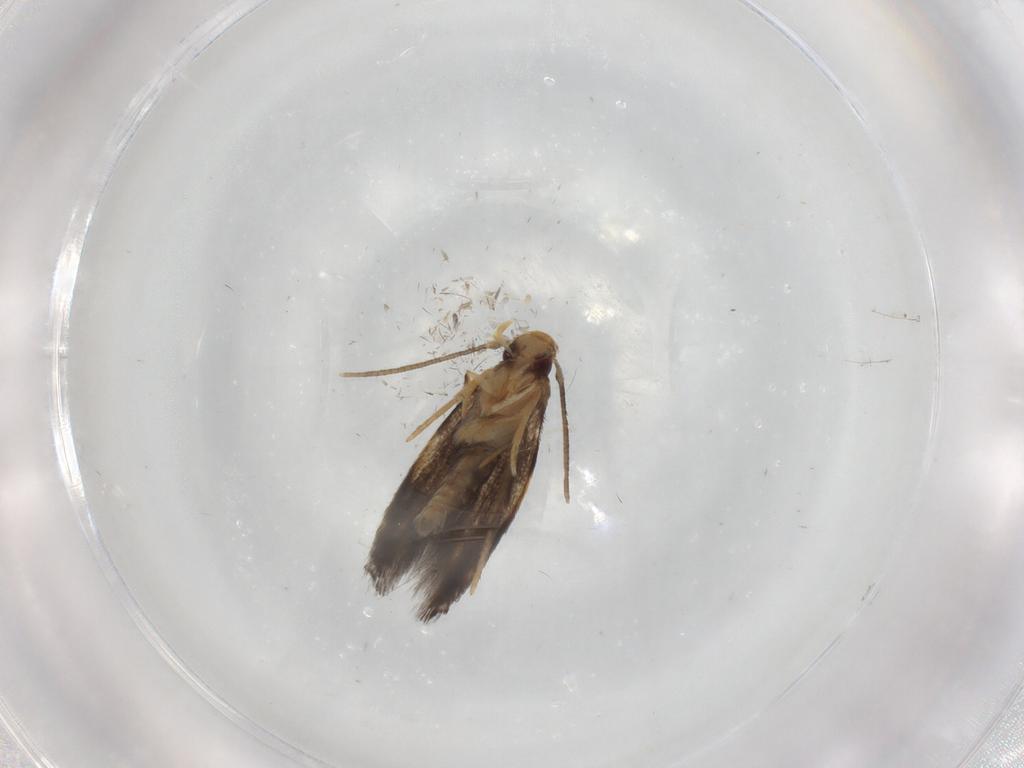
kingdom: Animalia
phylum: Arthropoda
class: Insecta
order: Lepidoptera
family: Gelechiidae
